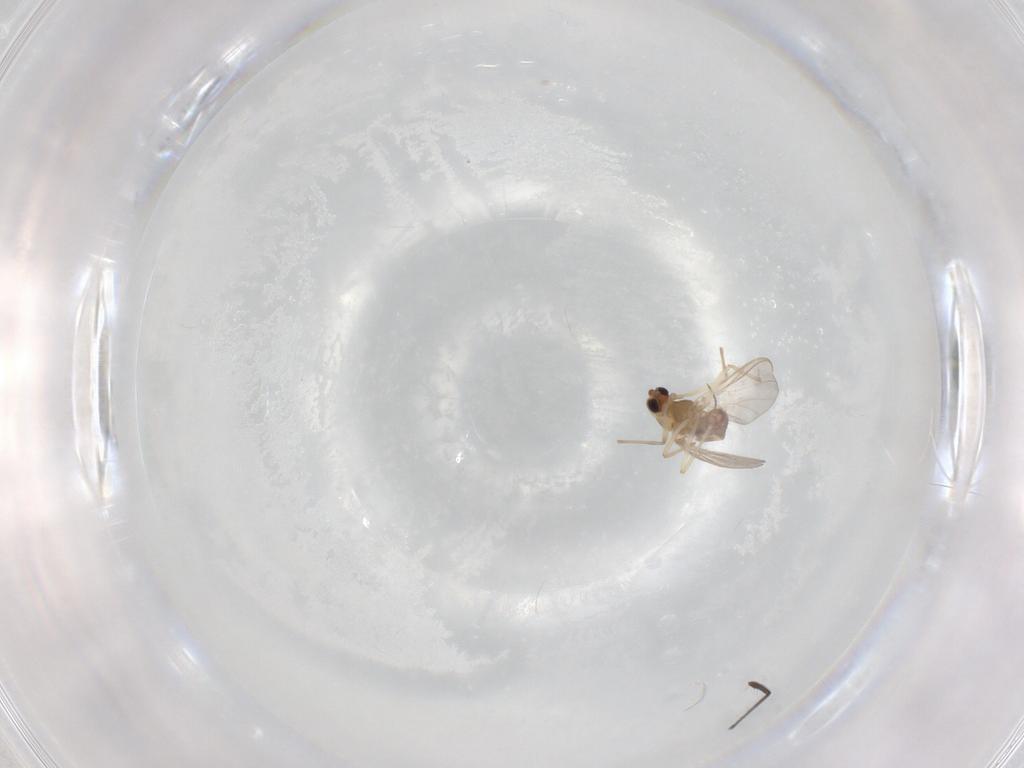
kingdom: Animalia
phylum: Arthropoda
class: Insecta
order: Diptera
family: Chironomidae
